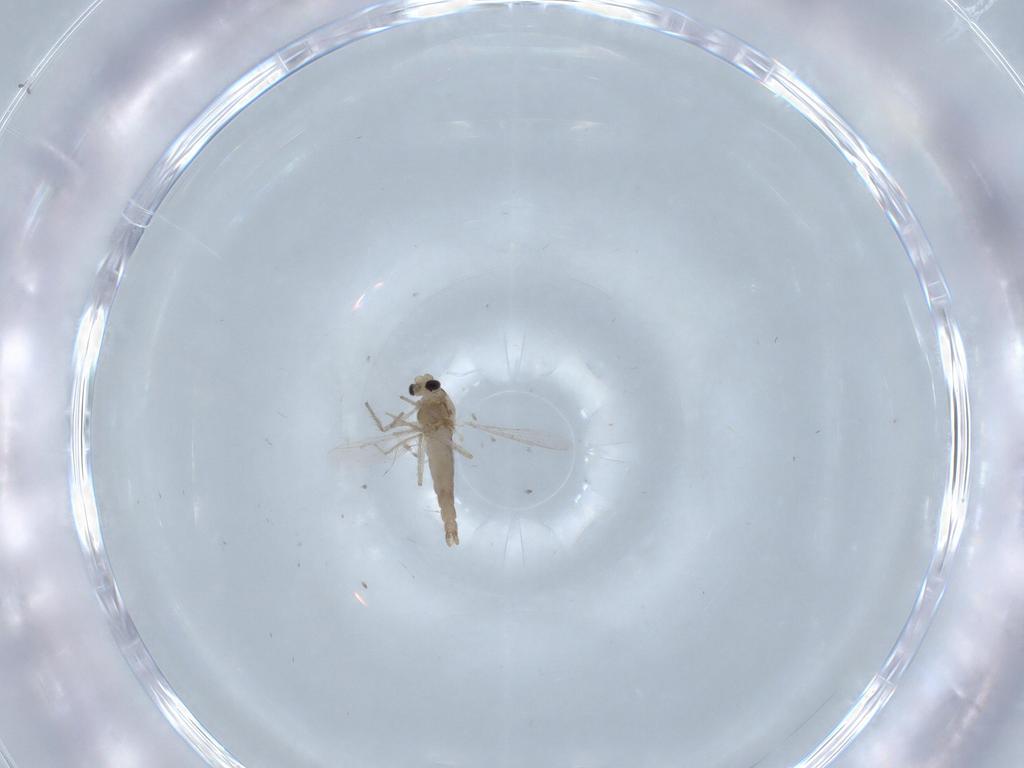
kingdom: Animalia
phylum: Arthropoda
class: Insecta
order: Diptera
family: Chironomidae
